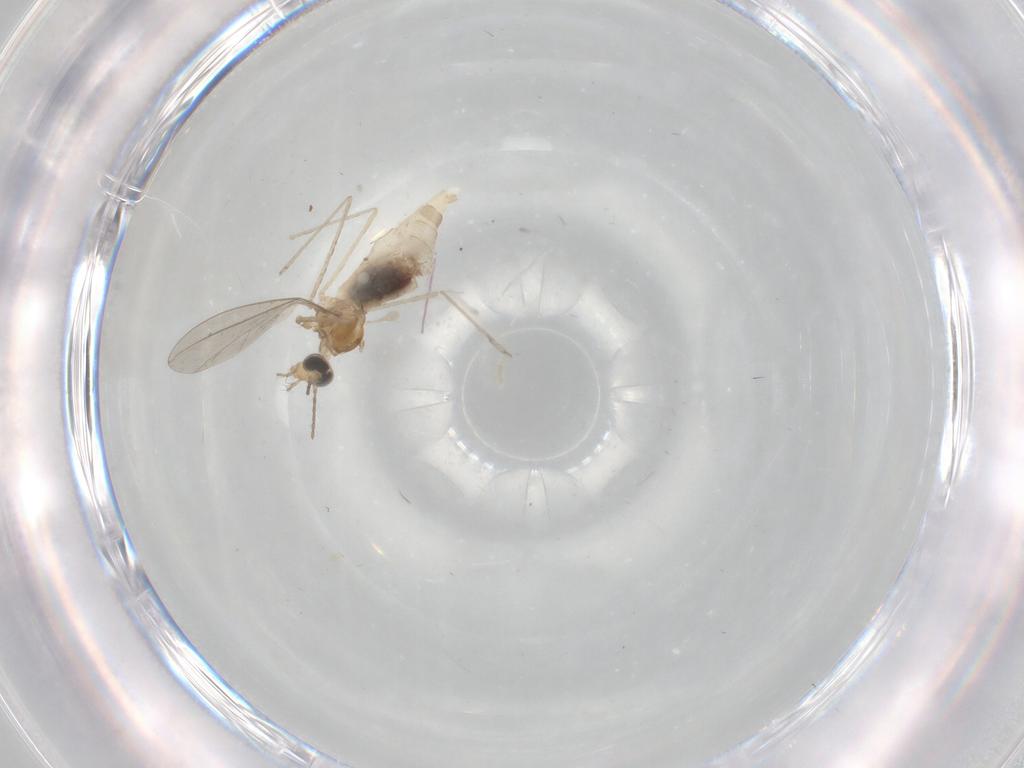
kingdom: Animalia
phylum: Arthropoda
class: Insecta
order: Diptera
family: Cecidomyiidae
